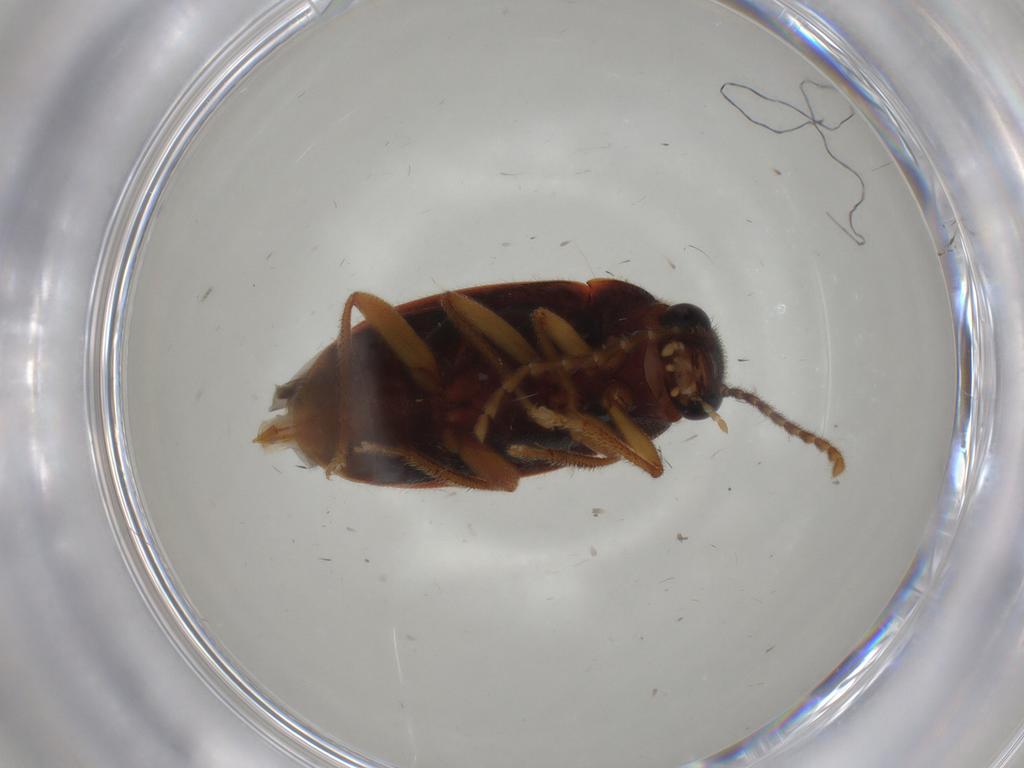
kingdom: Animalia
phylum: Arthropoda
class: Insecta
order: Coleoptera
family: Ptilodactylidae
